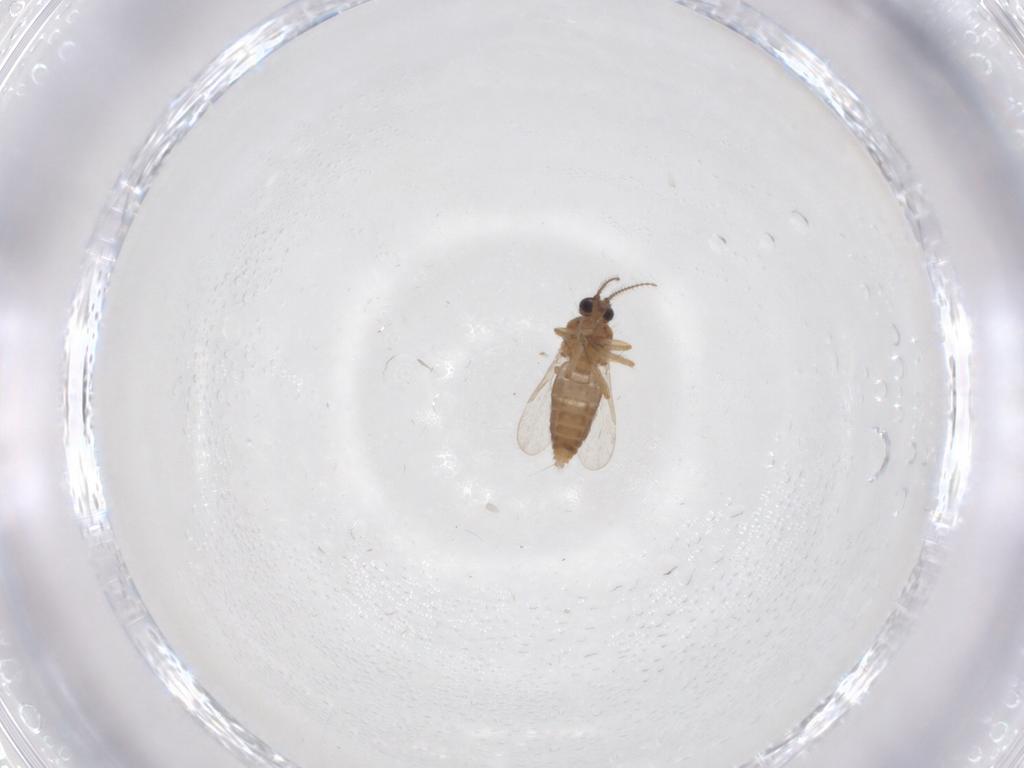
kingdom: Animalia
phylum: Arthropoda
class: Insecta
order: Diptera
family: Ceratopogonidae
